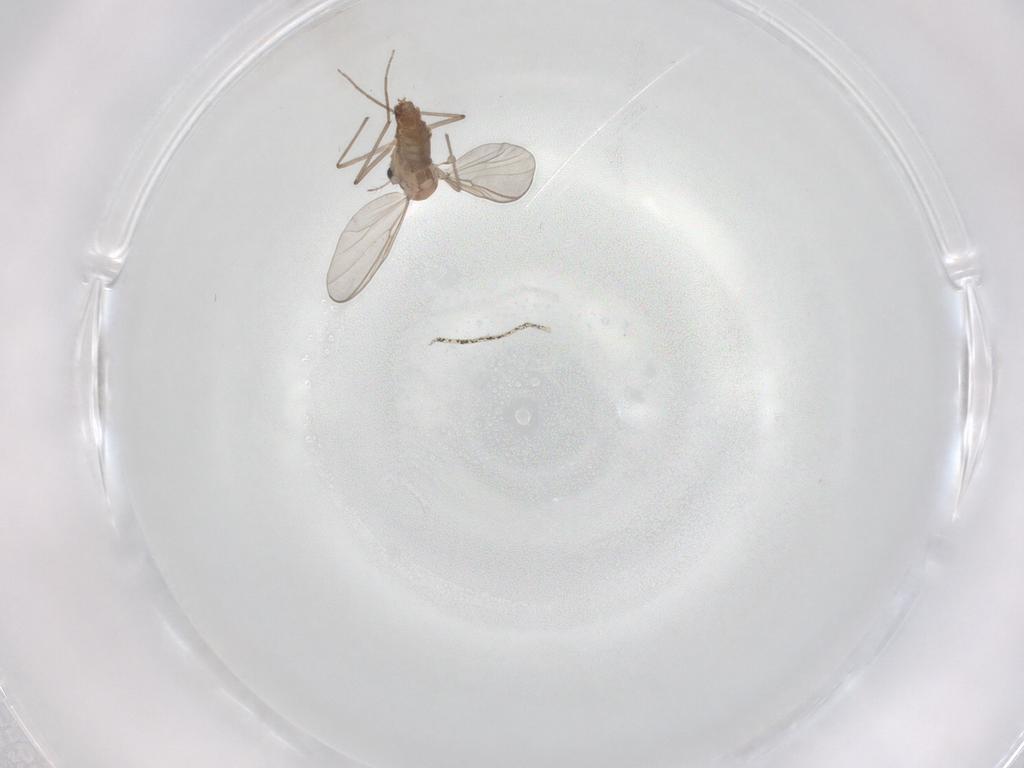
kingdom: Animalia
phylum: Arthropoda
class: Insecta
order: Diptera
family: Chironomidae
